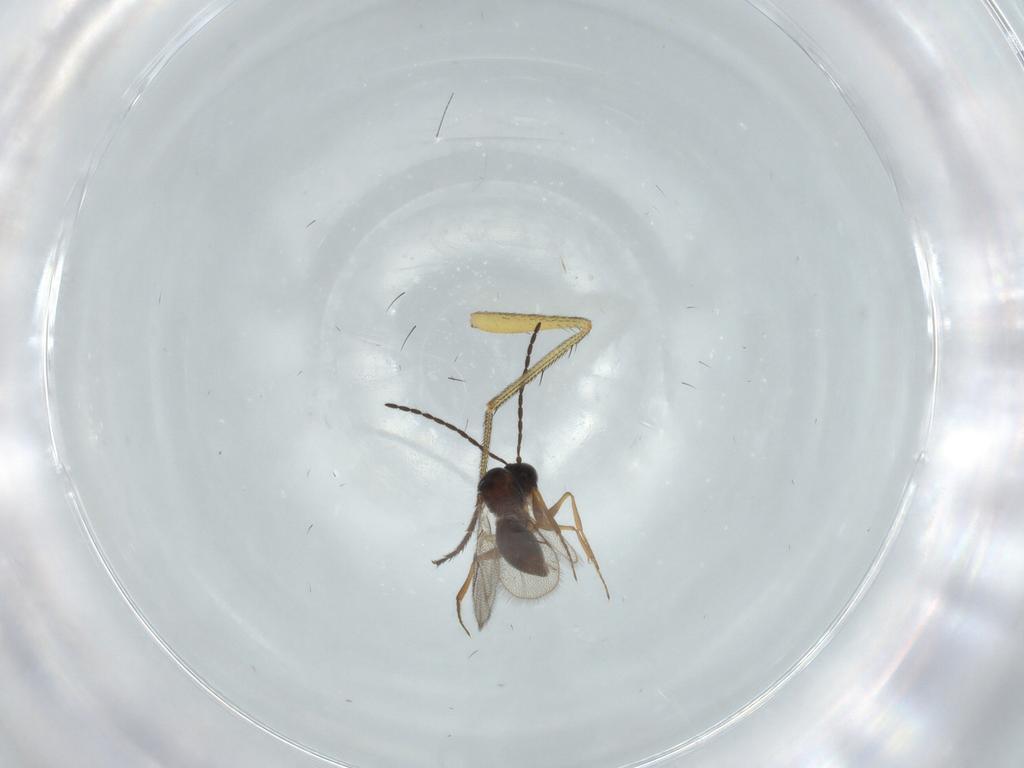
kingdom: Animalia
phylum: Arthropoda
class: Insecta
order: Hymenoptera
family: Figitidae
